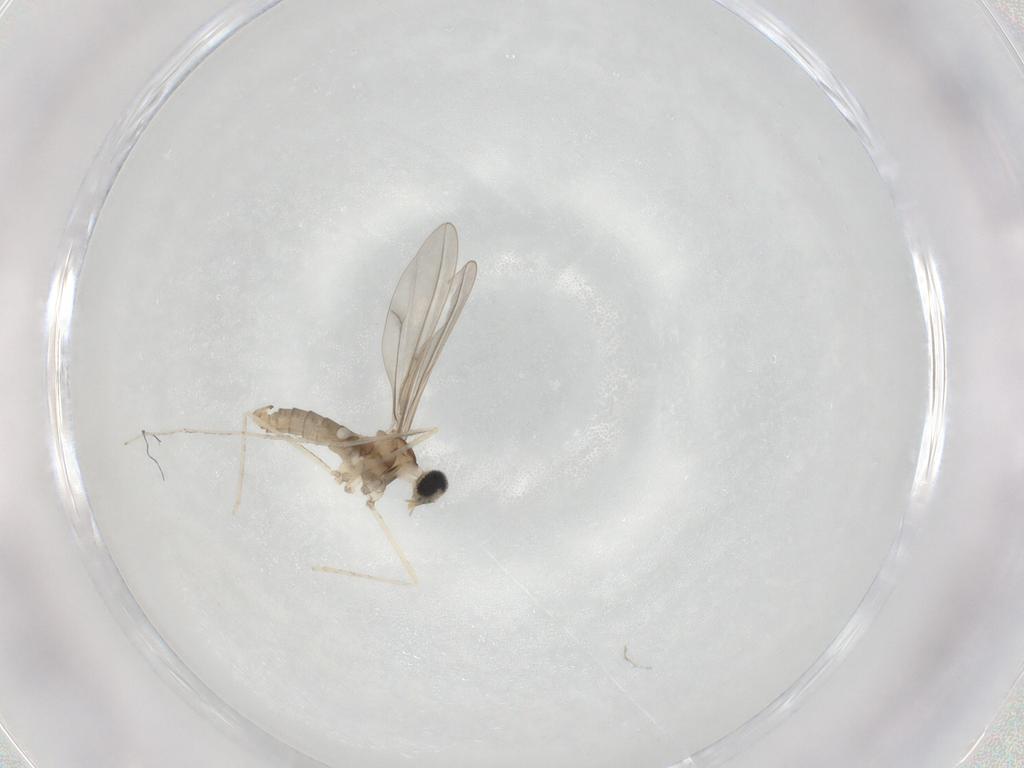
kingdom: Animalia
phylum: Arthropoda
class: Insecta
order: Diptera
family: Cecidomyiidae
